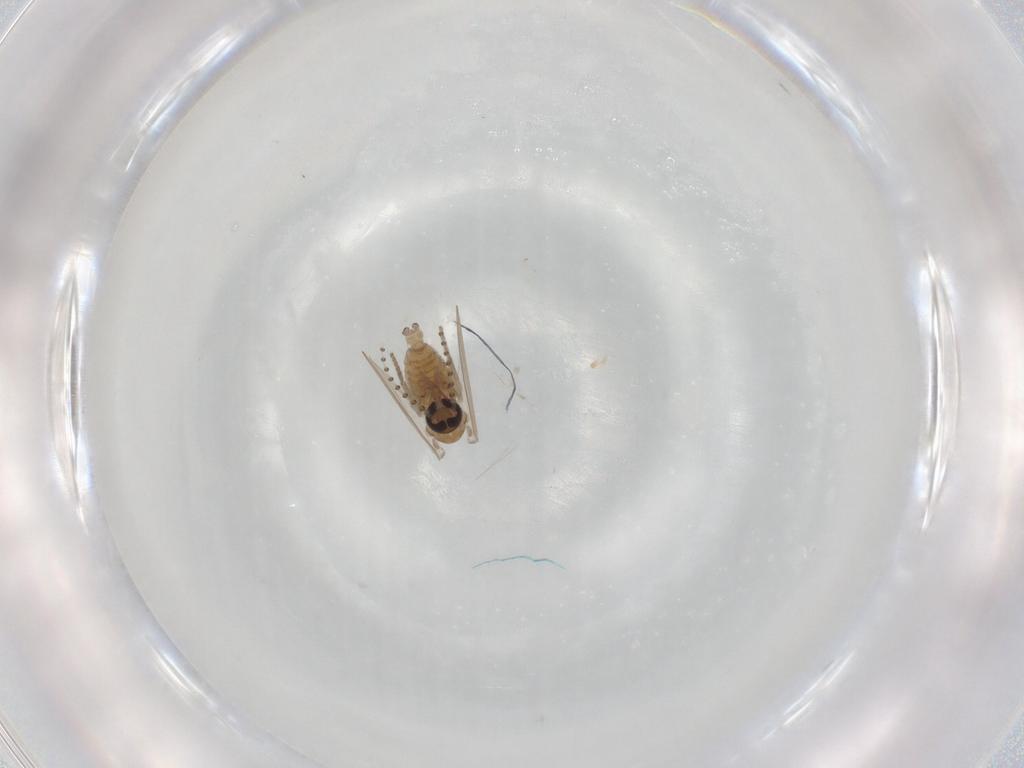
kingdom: Animalia
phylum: Arthropoda
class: Insecta
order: Diptera
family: Psychodidae
